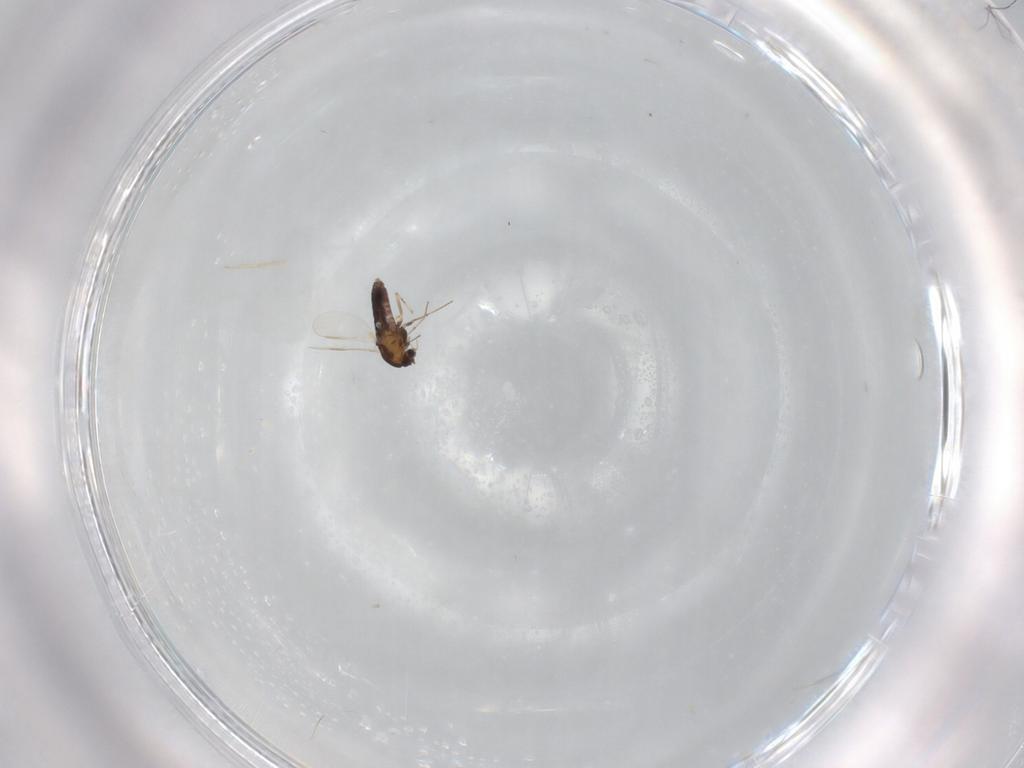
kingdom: Animalia
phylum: Arthropoda
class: Insecta
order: Diptera
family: Chironomidae
